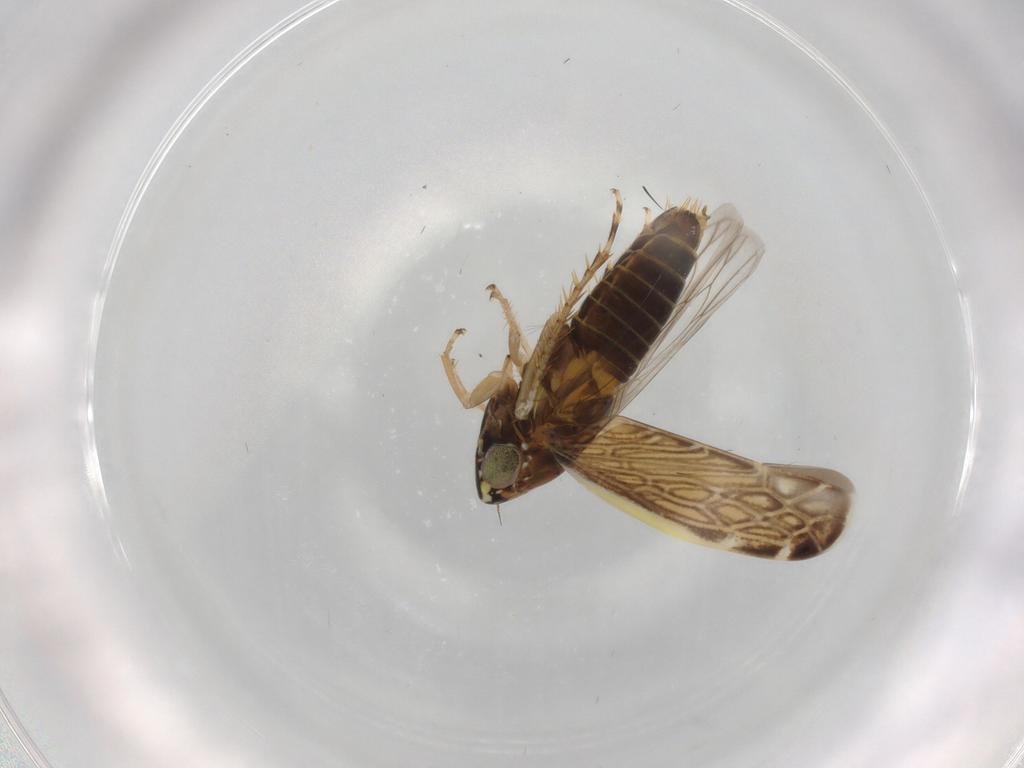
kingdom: Animalia
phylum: Arthropoda
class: Insecta
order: Hemiptera
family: Cicadellidae
